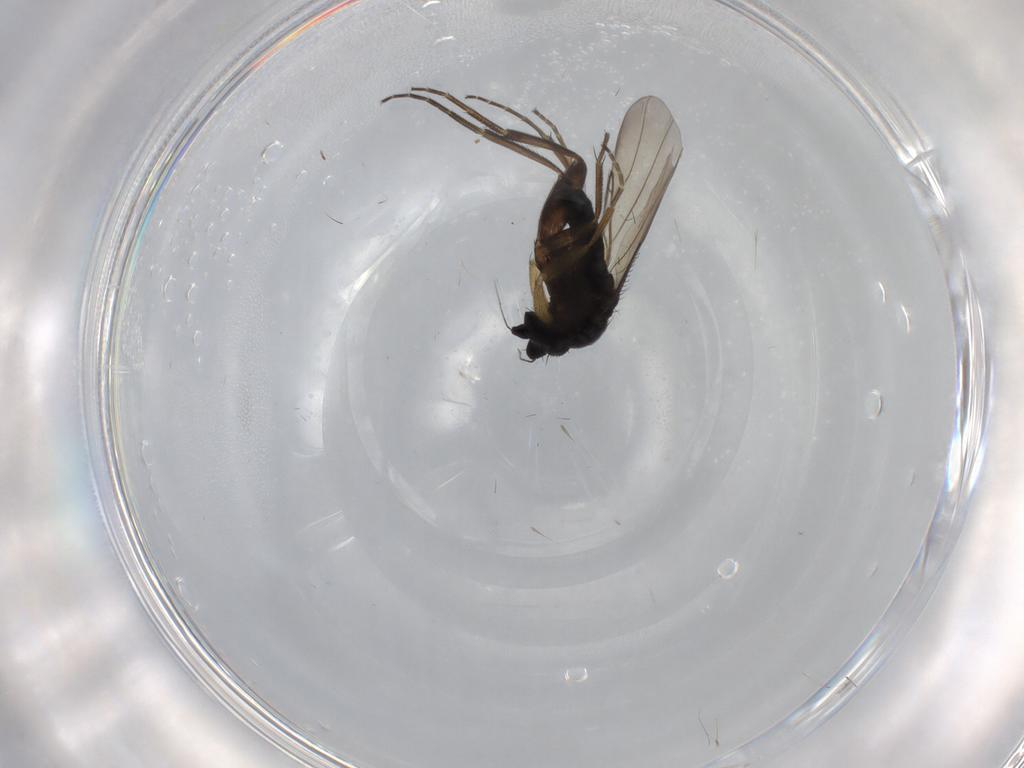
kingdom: Animalia
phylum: Arthropoda
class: Insecta
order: Diptera
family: Phoridae
